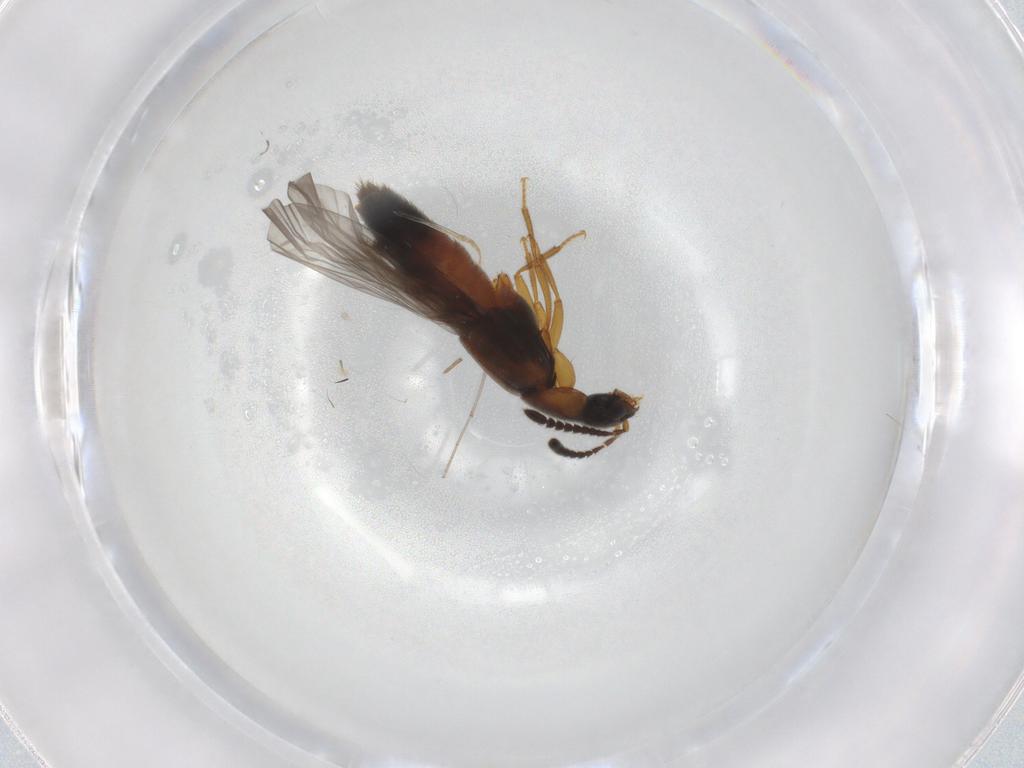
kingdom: Animalia
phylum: Arthropoda
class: Insecta
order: Coleoptera
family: Staphylinidae
